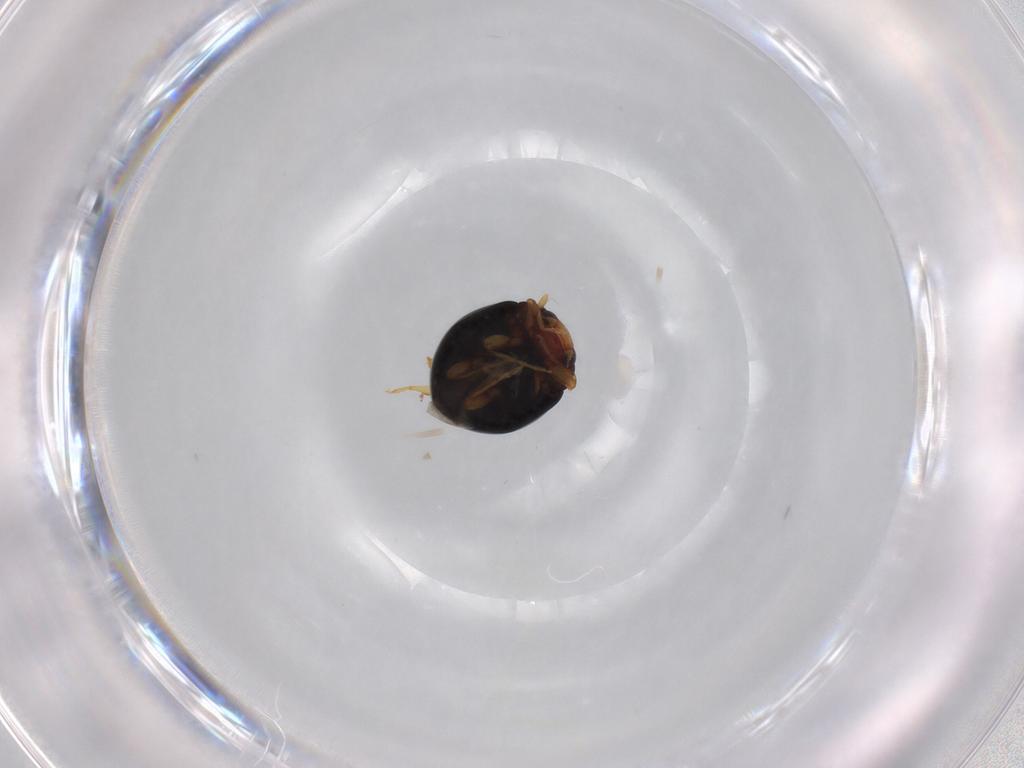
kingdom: Animalia
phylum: Arthropoda
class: Insecta
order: Coleoptera
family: Coccinellidae
